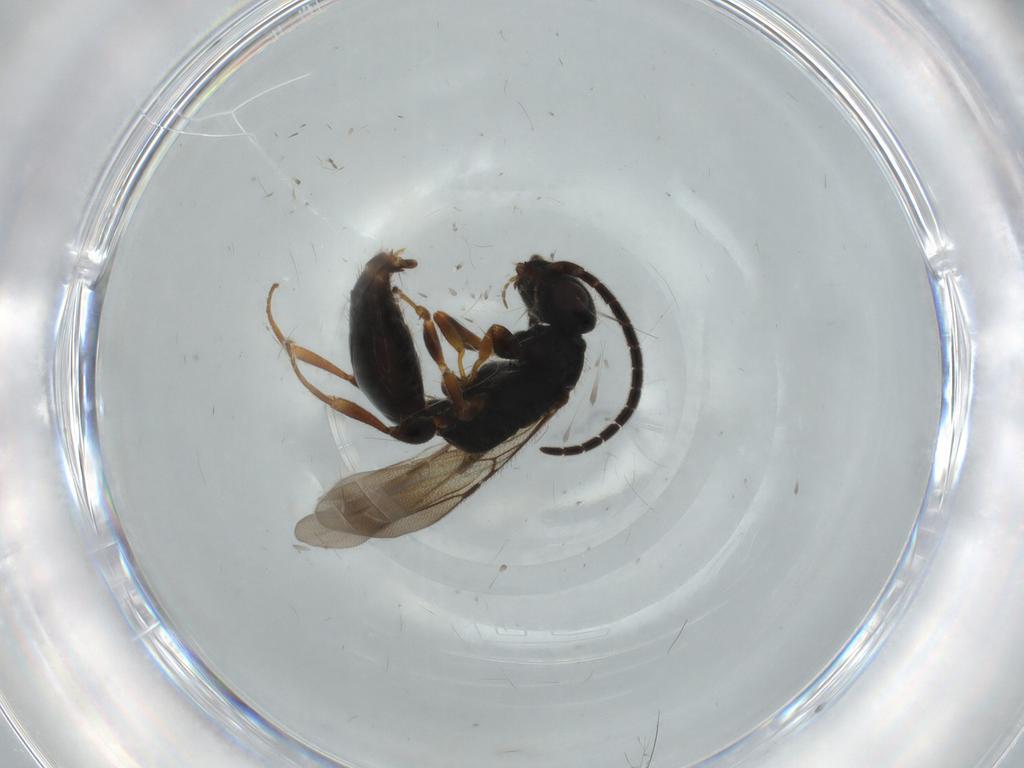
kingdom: Animalia
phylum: Arthropoda
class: Insecta
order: Hymenoptera
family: Bethylidae
